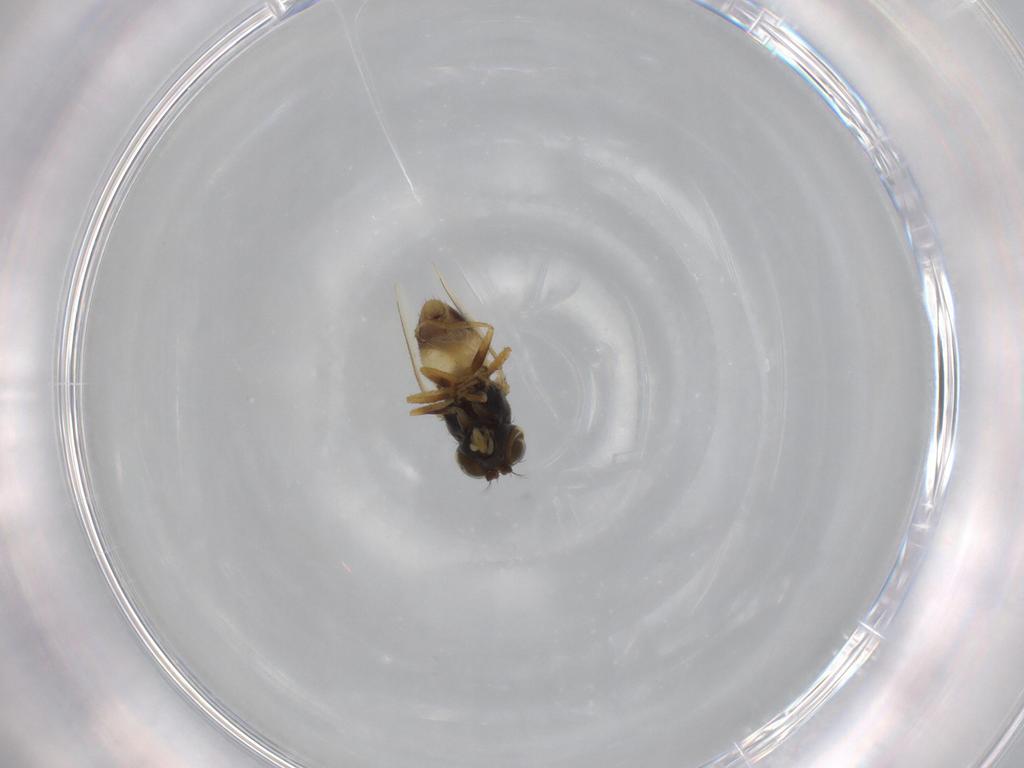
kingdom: Animalia
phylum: Arthropoda
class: Insecta
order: Diptera
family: Ephydridae
